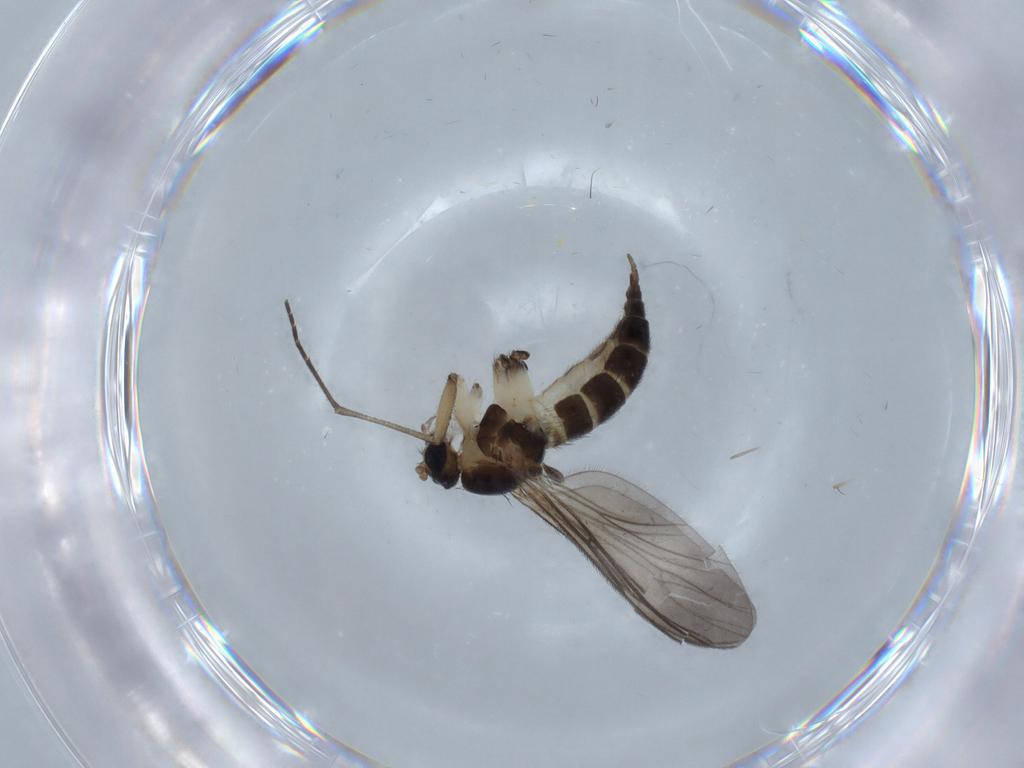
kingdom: Animalia
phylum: Arthropoda
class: Insecta
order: Diptera
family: Sciaridae
